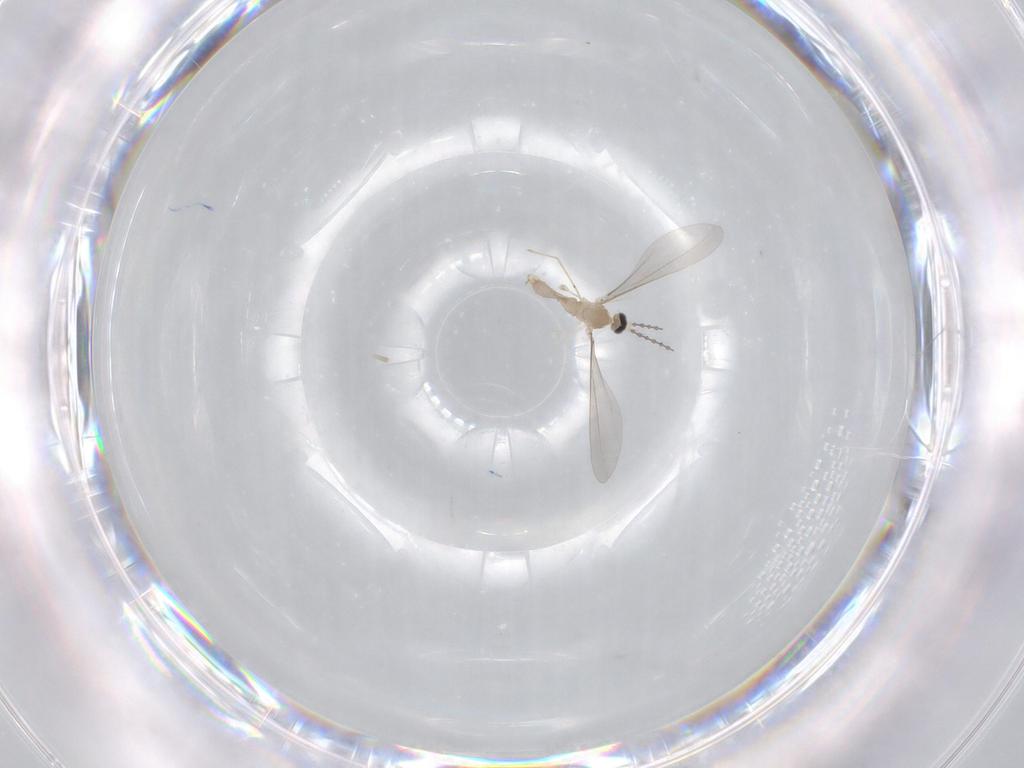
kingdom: Animalia
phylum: Arthropoda
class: Insecta
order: Diptera
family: Cecidomyiidae
